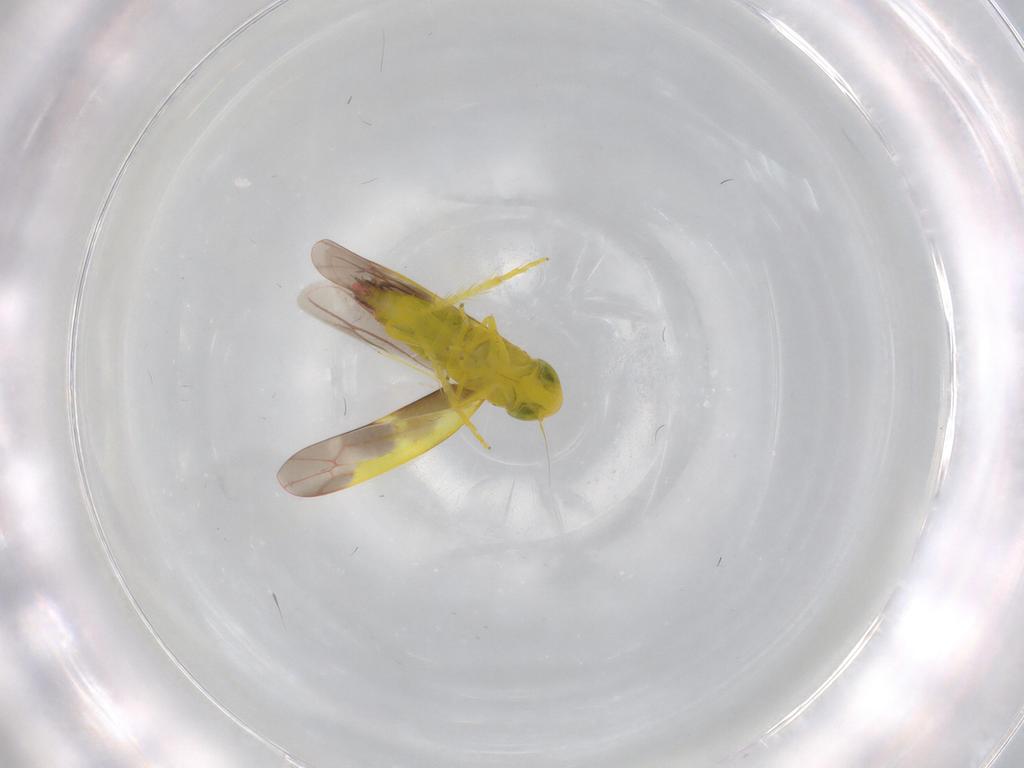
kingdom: Animalia
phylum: Arthropoda
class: Insecta
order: Hemiptera
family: Cicadellidae
